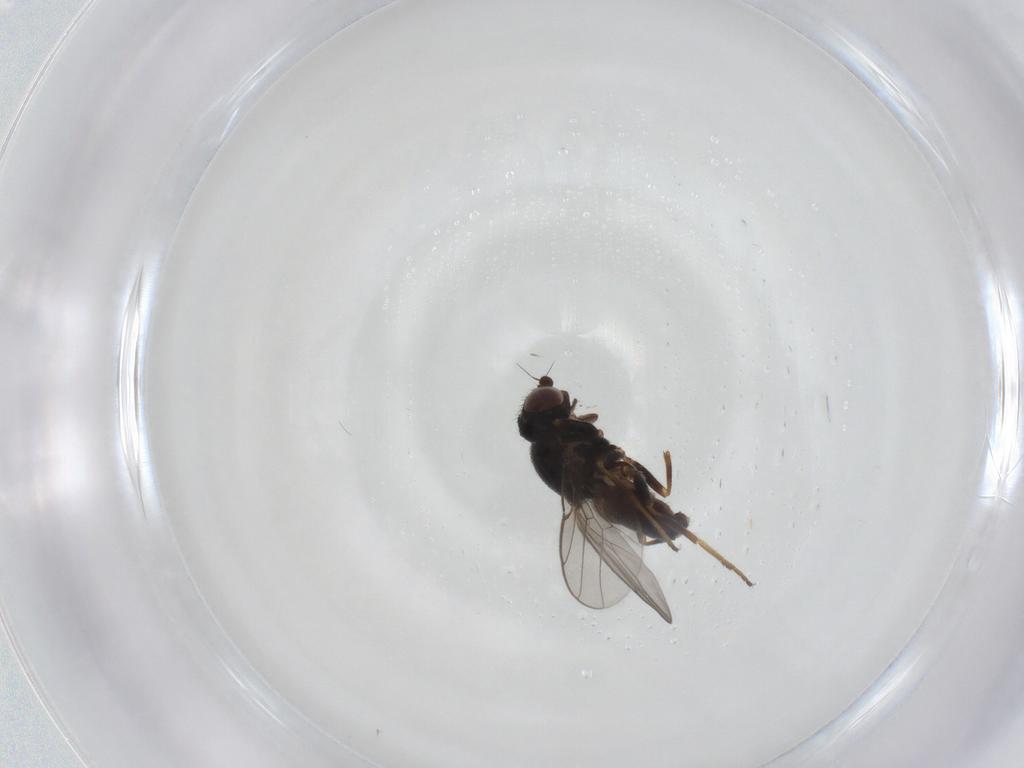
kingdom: Animalia
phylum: Arthropoda
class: Insecta
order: Diptera
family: Chloropidae
